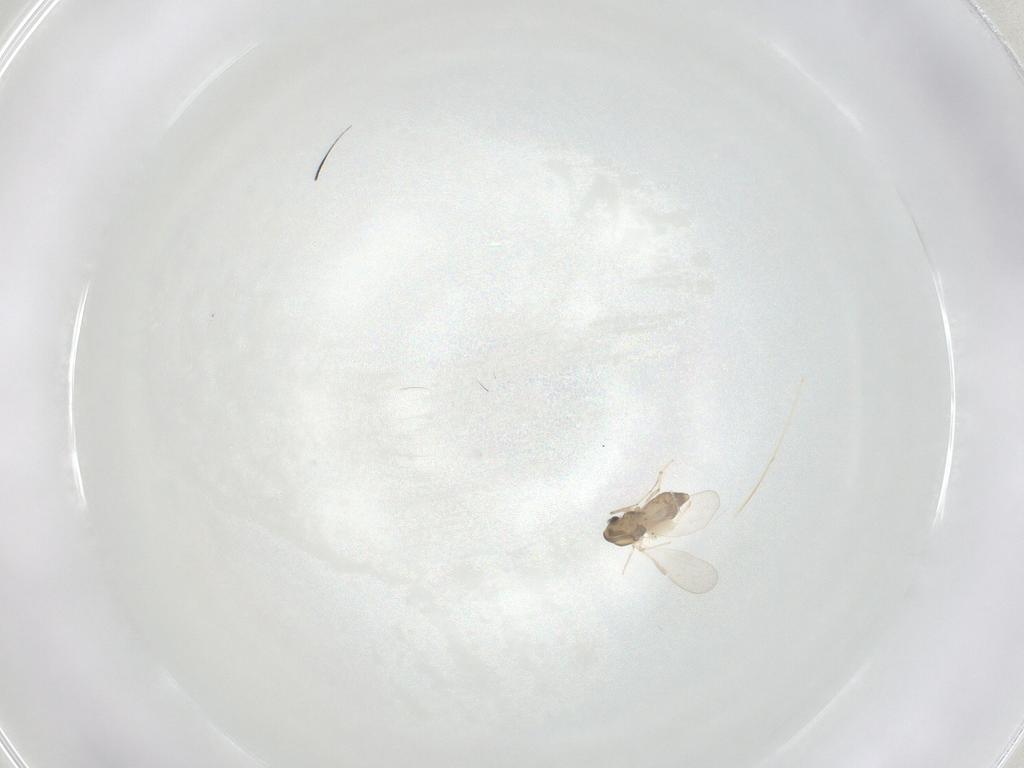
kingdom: Animalia
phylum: Arthropoda
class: Insecta
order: Diptera
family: Chironomidae
